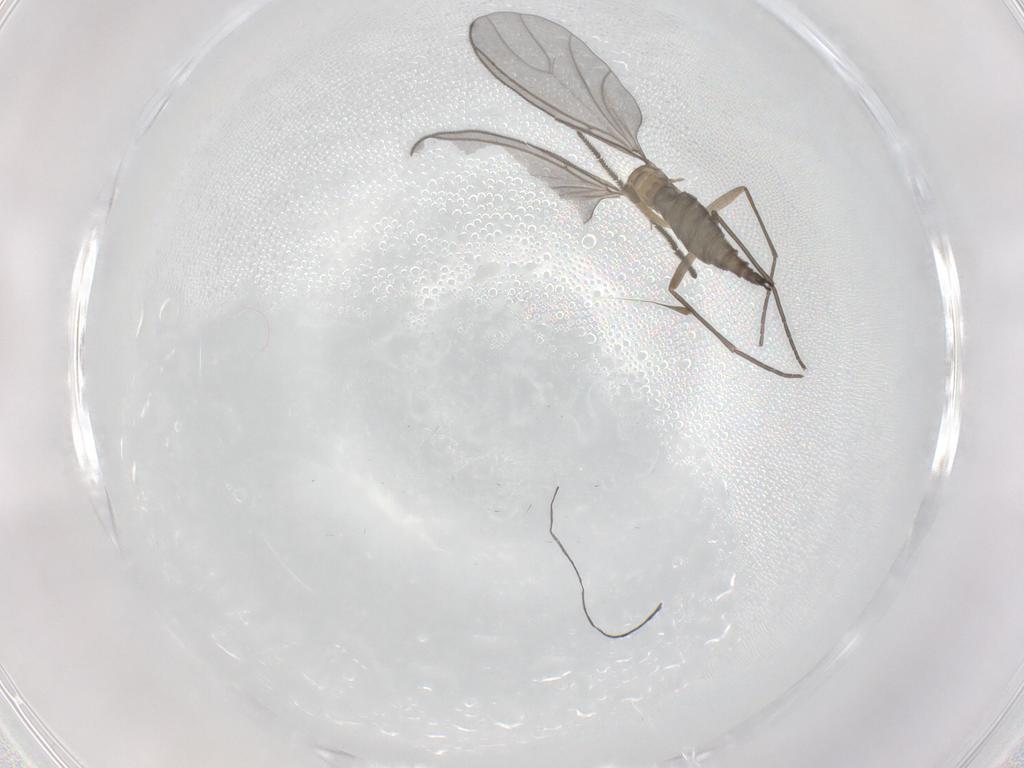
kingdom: Animalia
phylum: Arthropoda
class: Insecta
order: Diptera
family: Sciaridae
